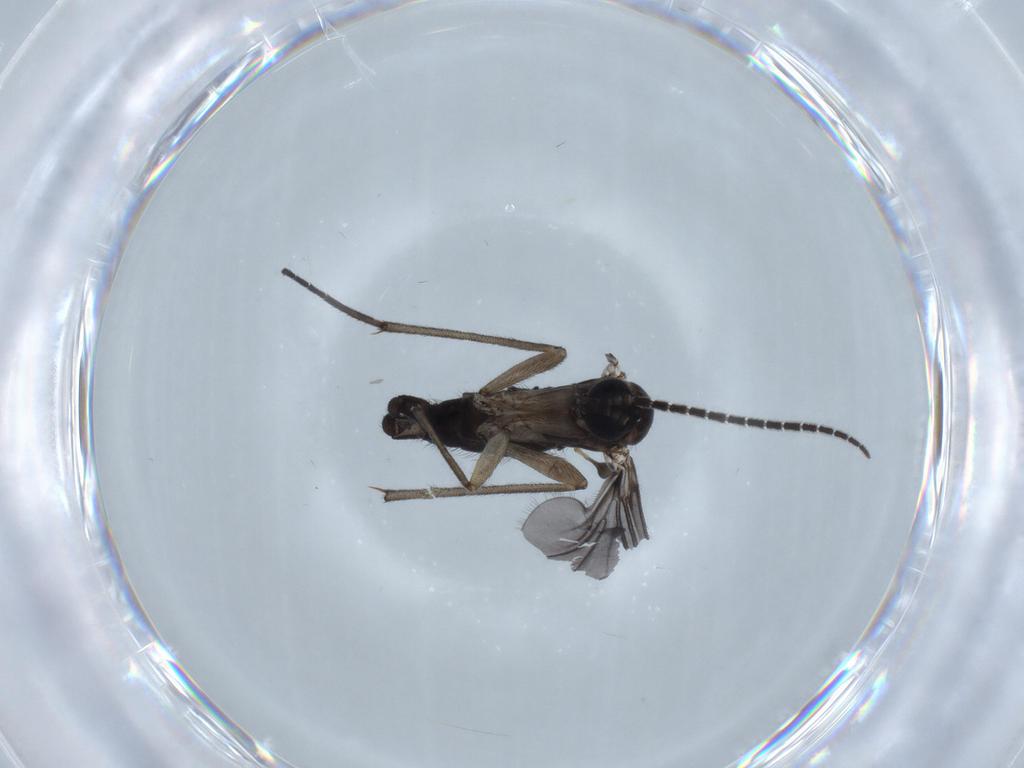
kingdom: Animalia
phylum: Arthropoda
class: Insecta
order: Diptera
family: Sciaridae
